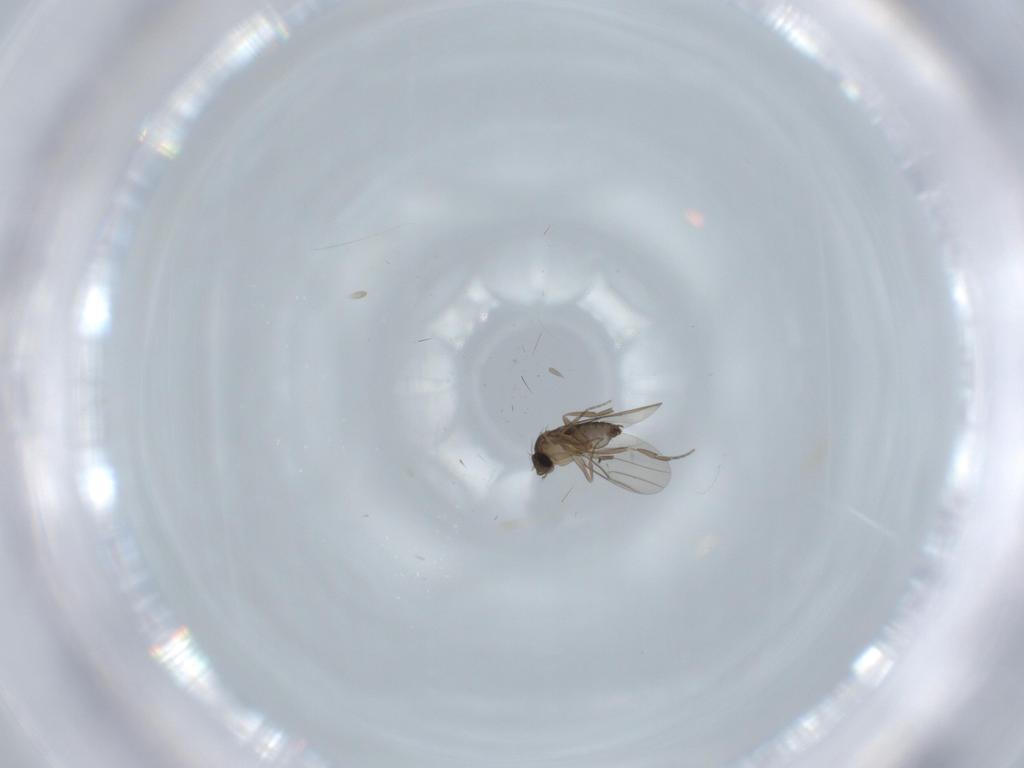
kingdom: Animalia
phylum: Arthropoda
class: Insecta
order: Diptera
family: Phoridae
